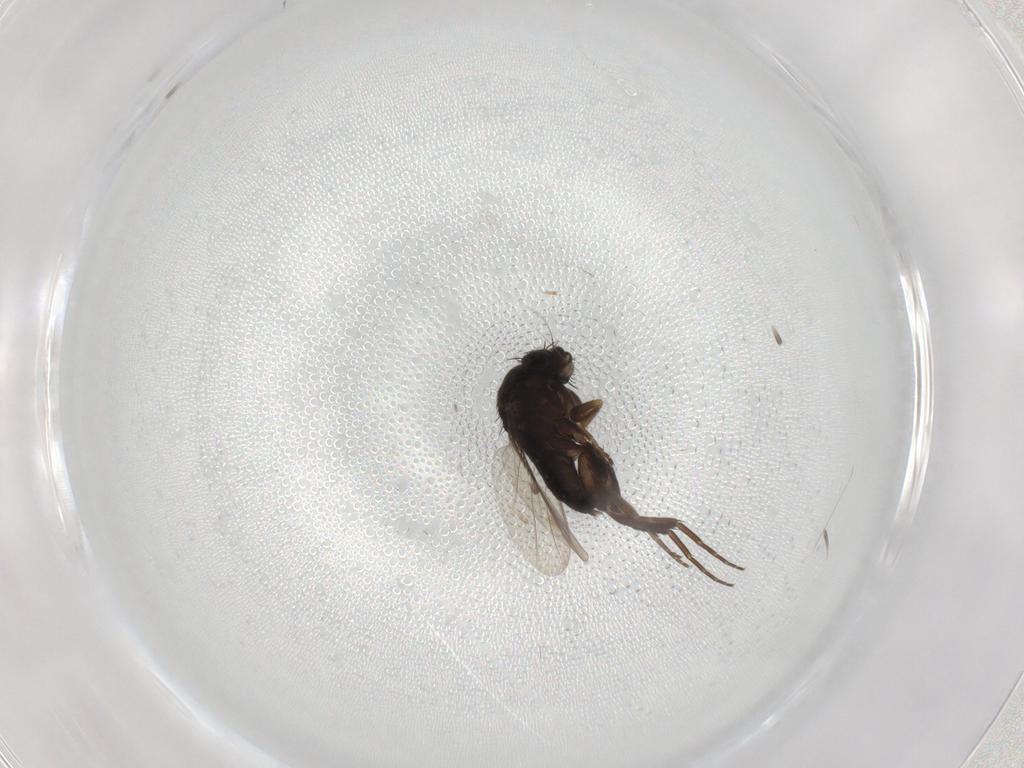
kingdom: Animalia
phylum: Arthropoda
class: Insecta
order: Diptera
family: Phoridae
